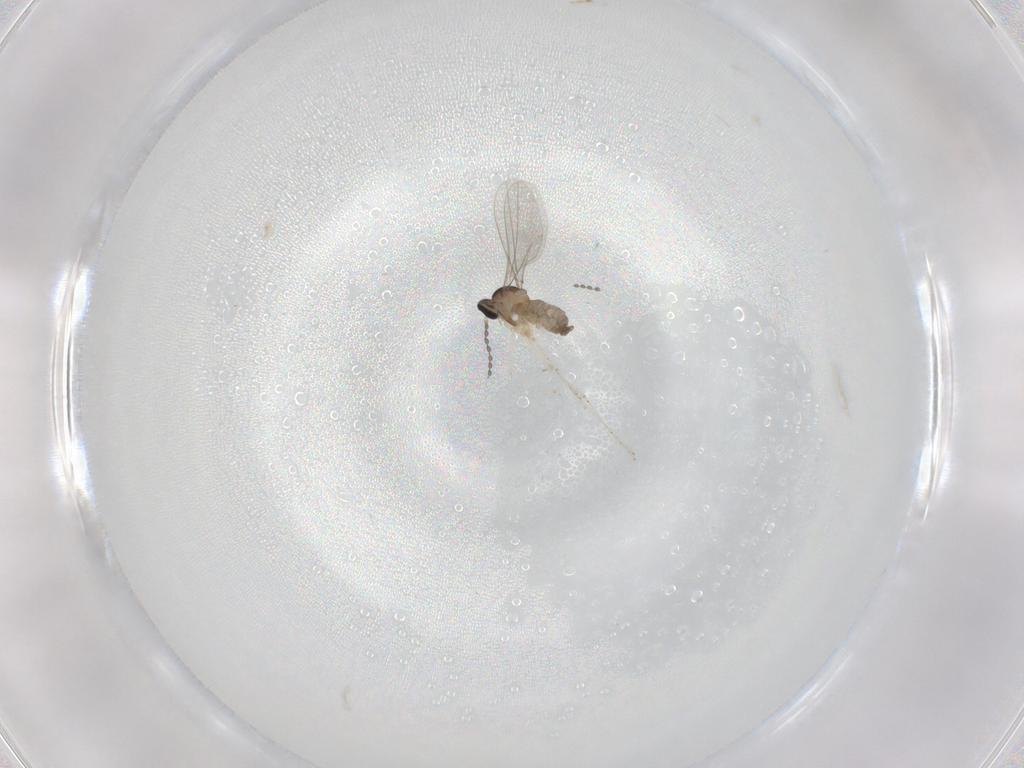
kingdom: Animalia
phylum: Arthropoda
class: Insecta
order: Diptera
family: Cecidomyiidae
